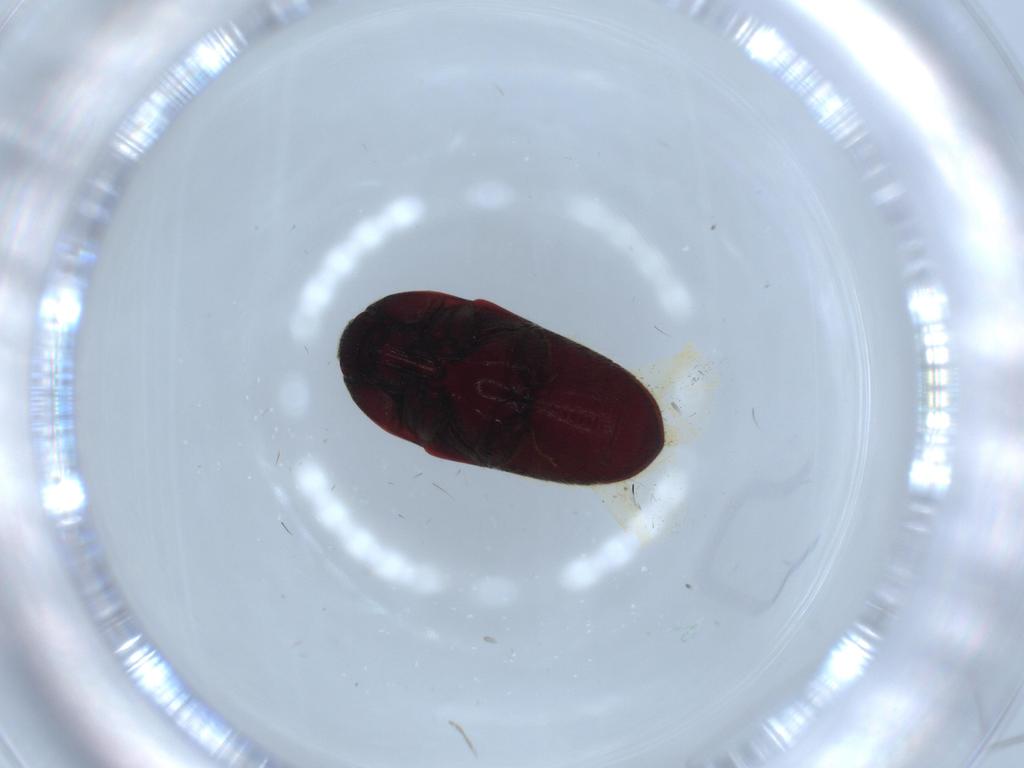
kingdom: Animalia
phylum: Arthropoda
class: Insecta
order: Coleoptera
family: Throscidae
